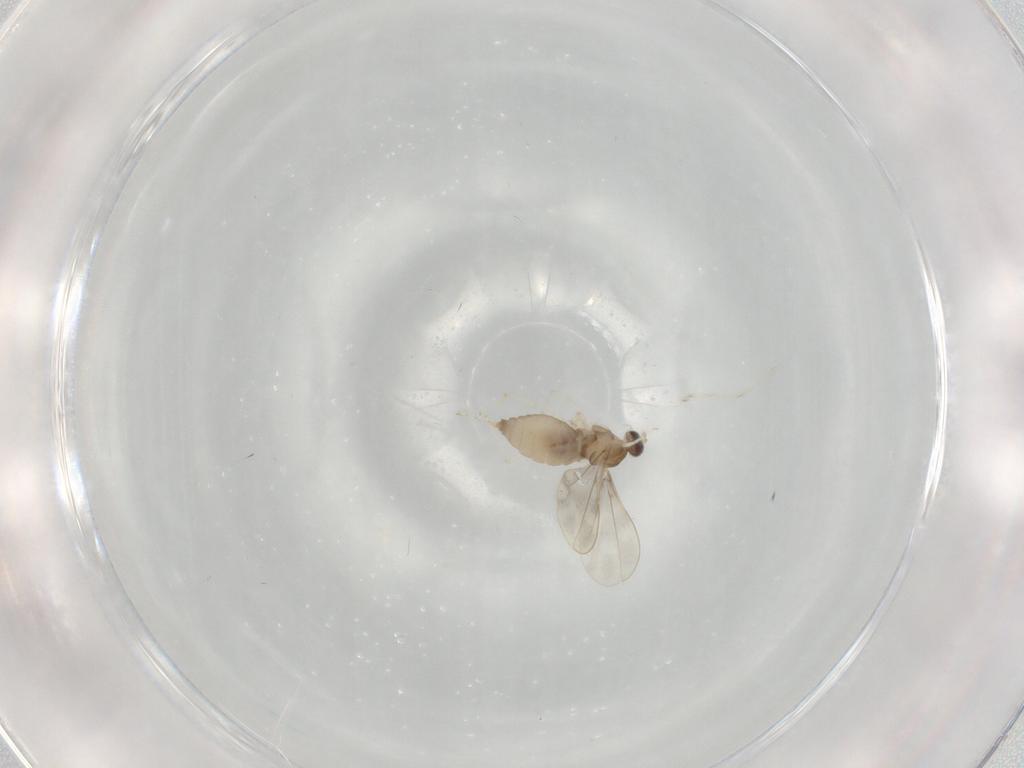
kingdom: Animalia
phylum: Arthropoda
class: Insecta
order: Diptera
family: Cecidomyiidae
